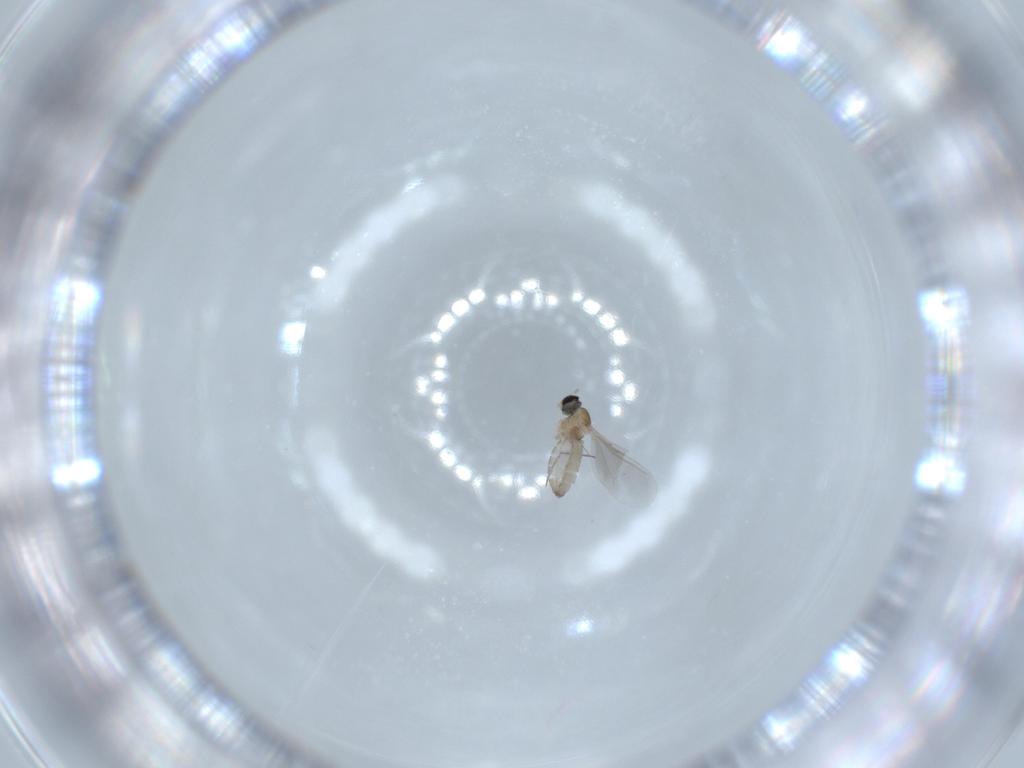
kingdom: Animalia
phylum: Arthropoda
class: Insecta
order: Diptera
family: Cecidomyiidae
